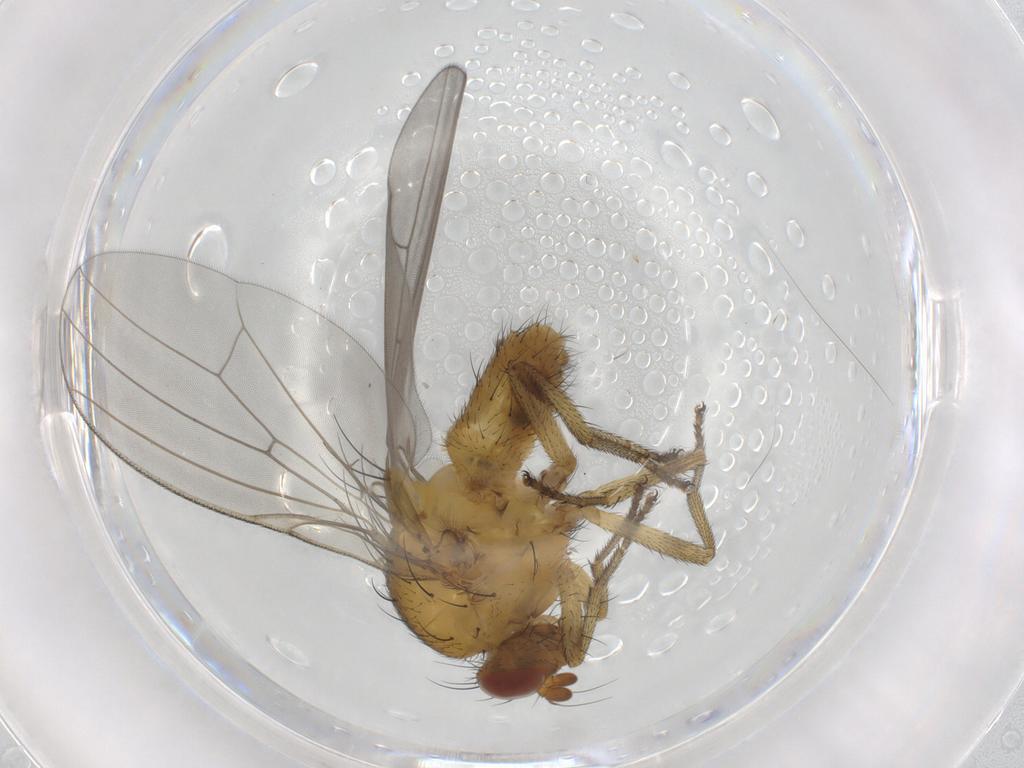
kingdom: Animalia
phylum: Arthropoda
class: Insecta
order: Diptera
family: Lauxaniidae
